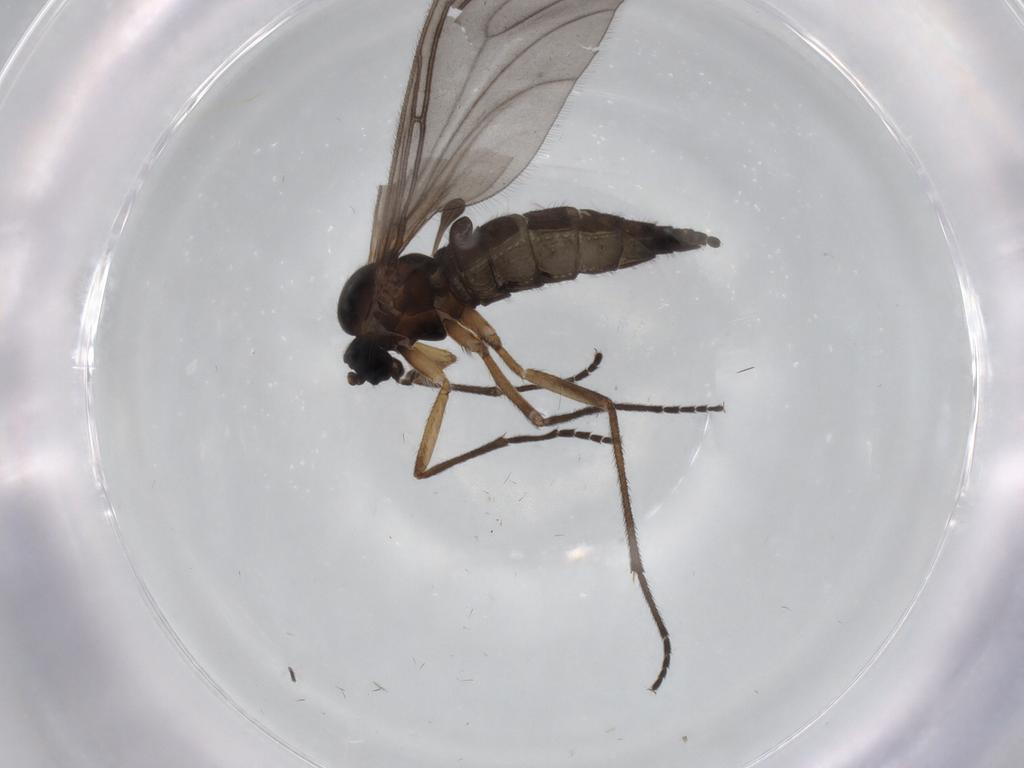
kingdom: Animalia
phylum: Arthropoda
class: Insecta
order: Diptera
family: Sciaridae
